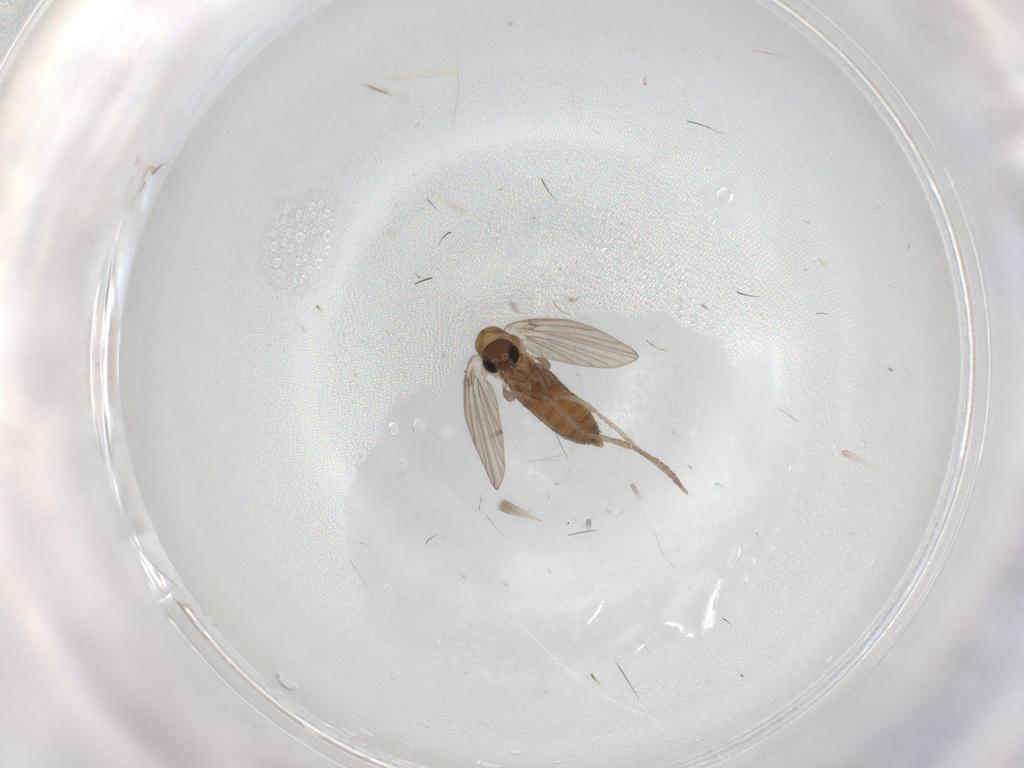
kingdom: Animalia
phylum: Arthropoda
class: Insecta
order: Diptera
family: Limoniidae
